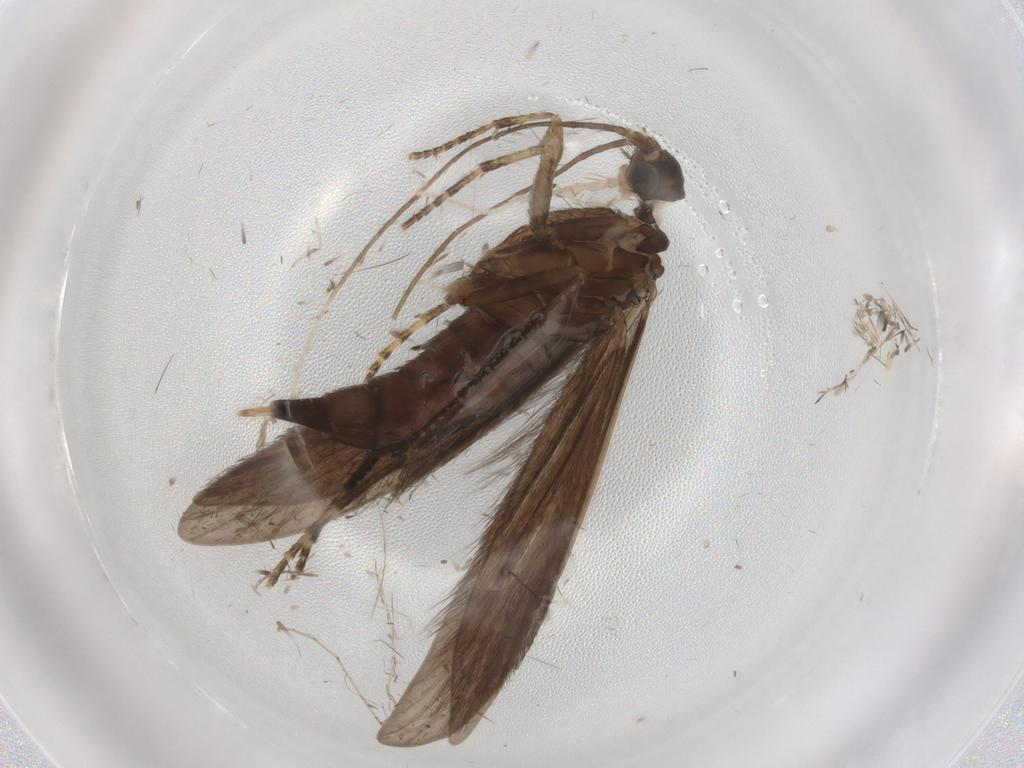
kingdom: Animalia
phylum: Arthropoda
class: Insecta
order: Trichoptera
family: Xiphocentronidae
